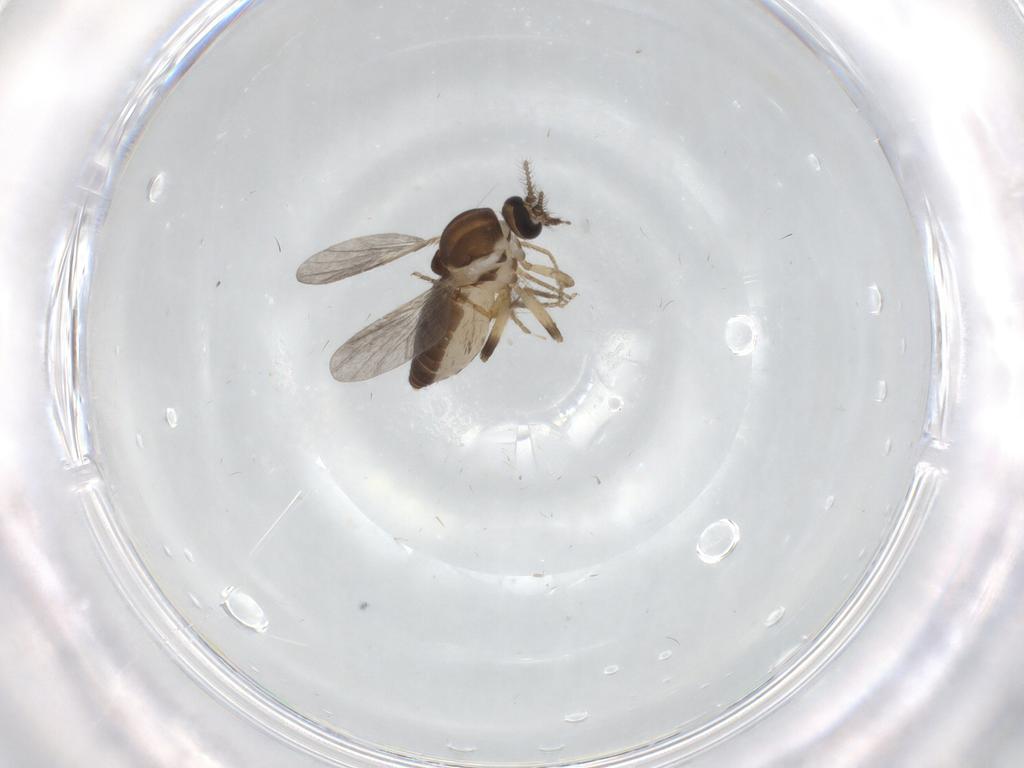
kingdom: Animalia
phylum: Arthropoda
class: Insecta
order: Diptera
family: Ceratopogonidae
